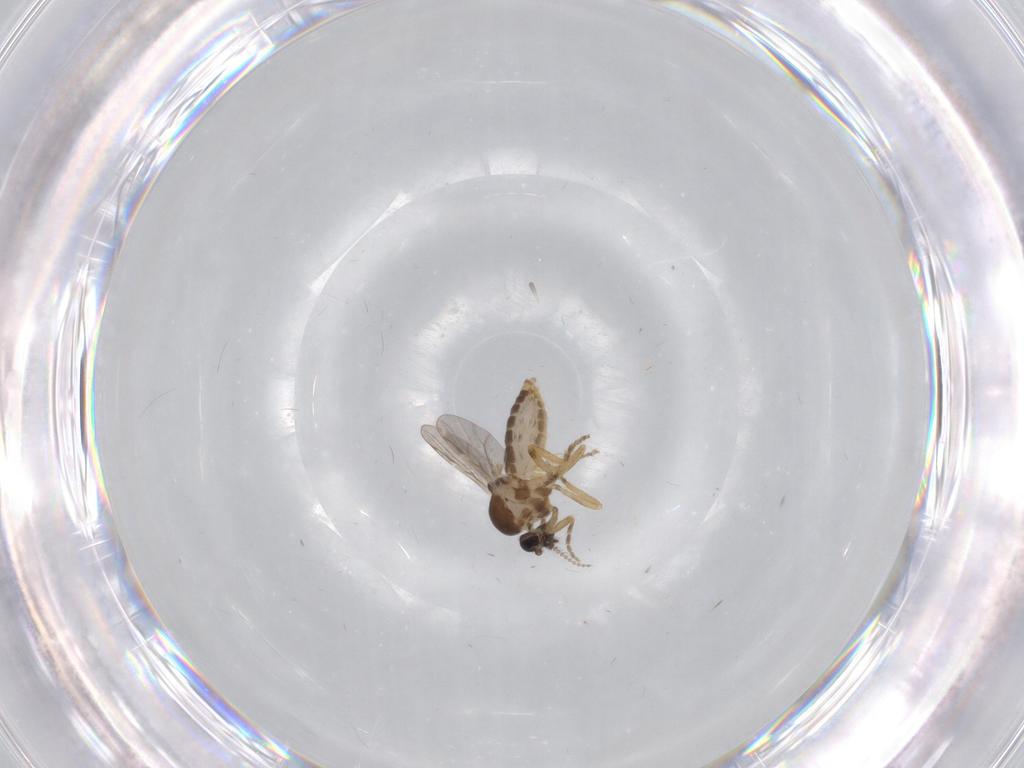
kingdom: Animalia
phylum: Arthropoda
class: Insecta
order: Diptera
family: Ceratopogonidae
